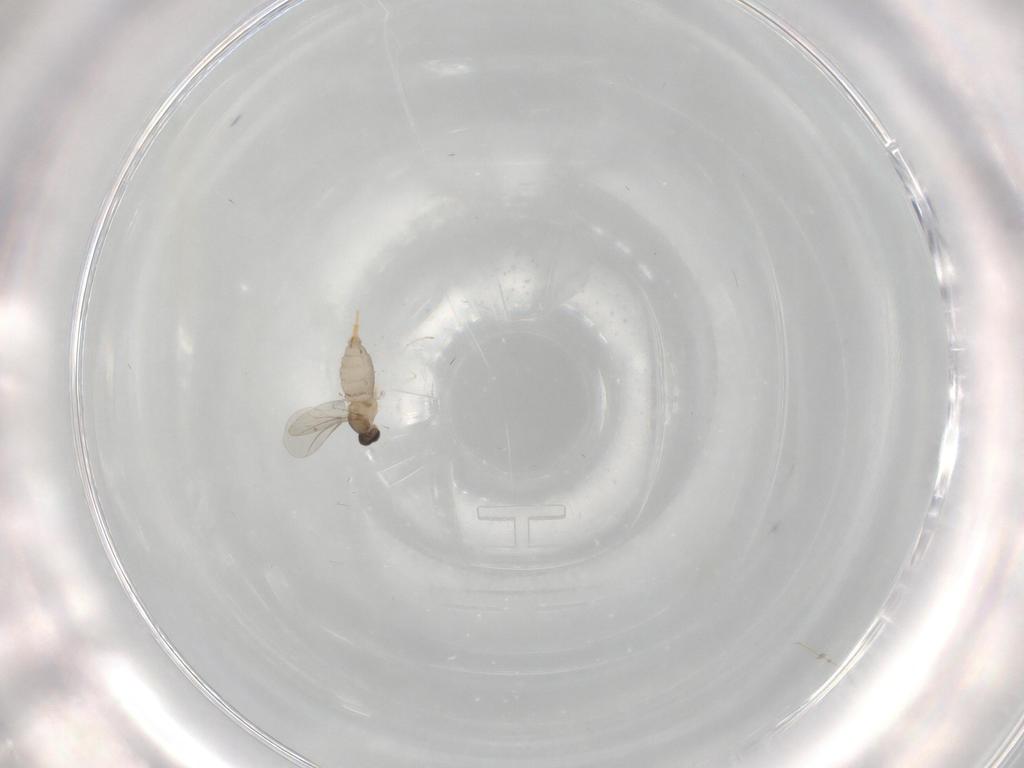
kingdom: Animalia
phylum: Arthropoda
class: Insecta
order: Diptera
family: Cecidomyiidae
